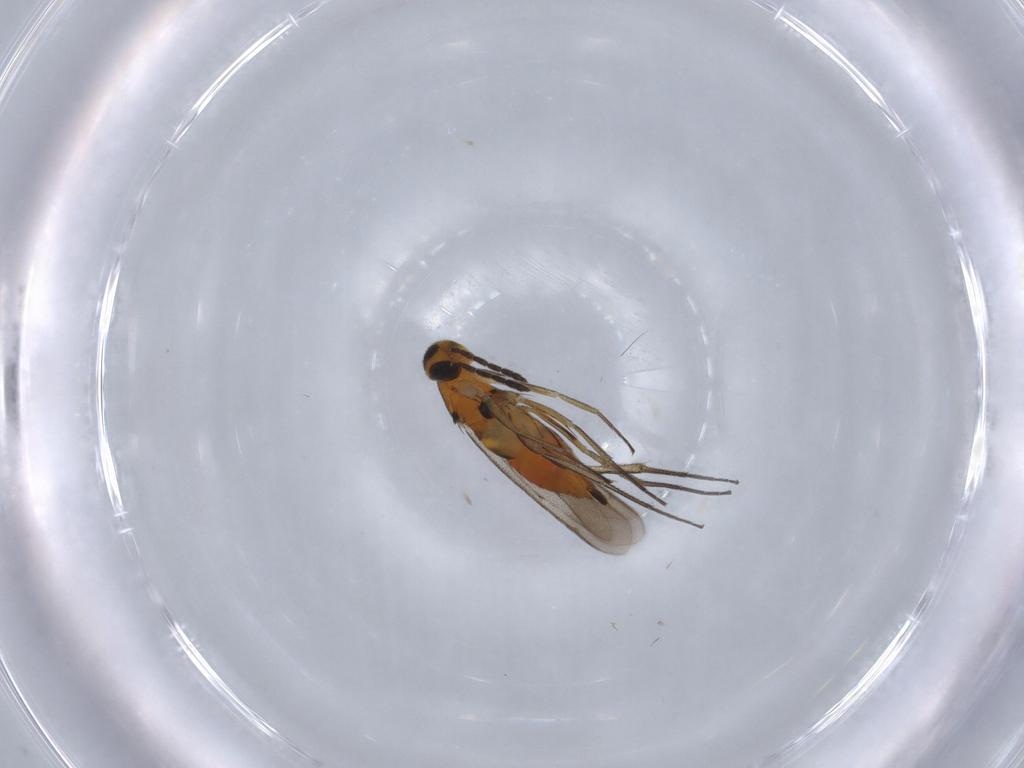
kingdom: Animalia
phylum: Arthropoda
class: Insecta
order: Hymenoptera
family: Eulophidae
